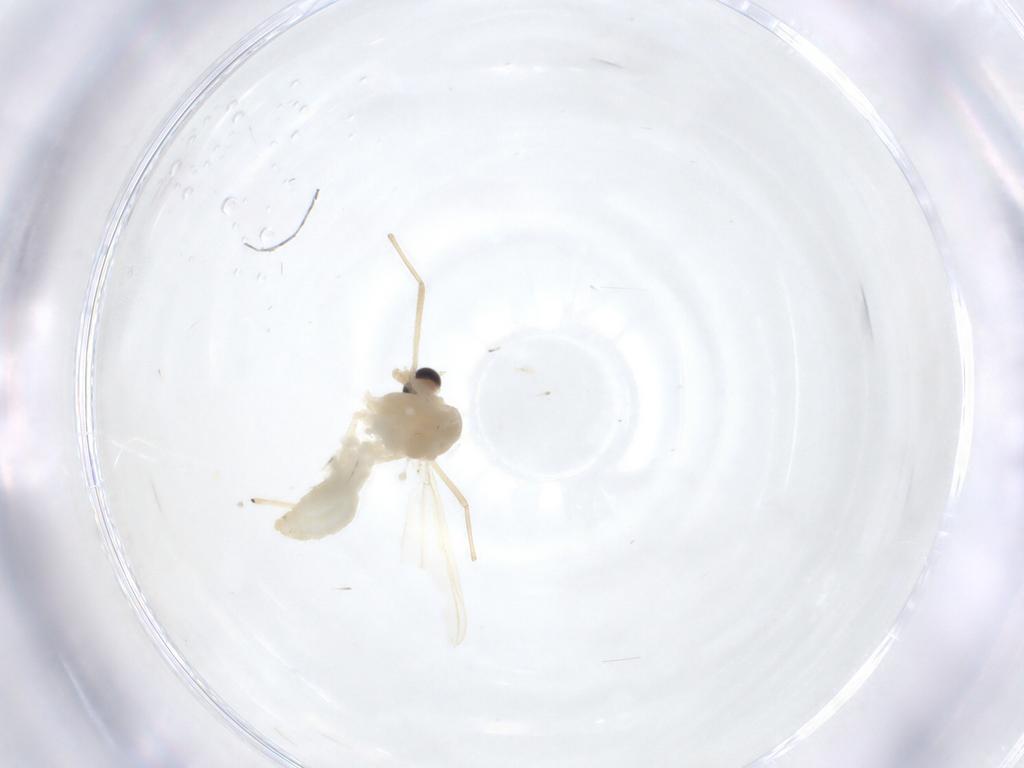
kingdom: Animalia
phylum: Arthropoda
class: Insecta
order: Diptera
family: Chironomidae
